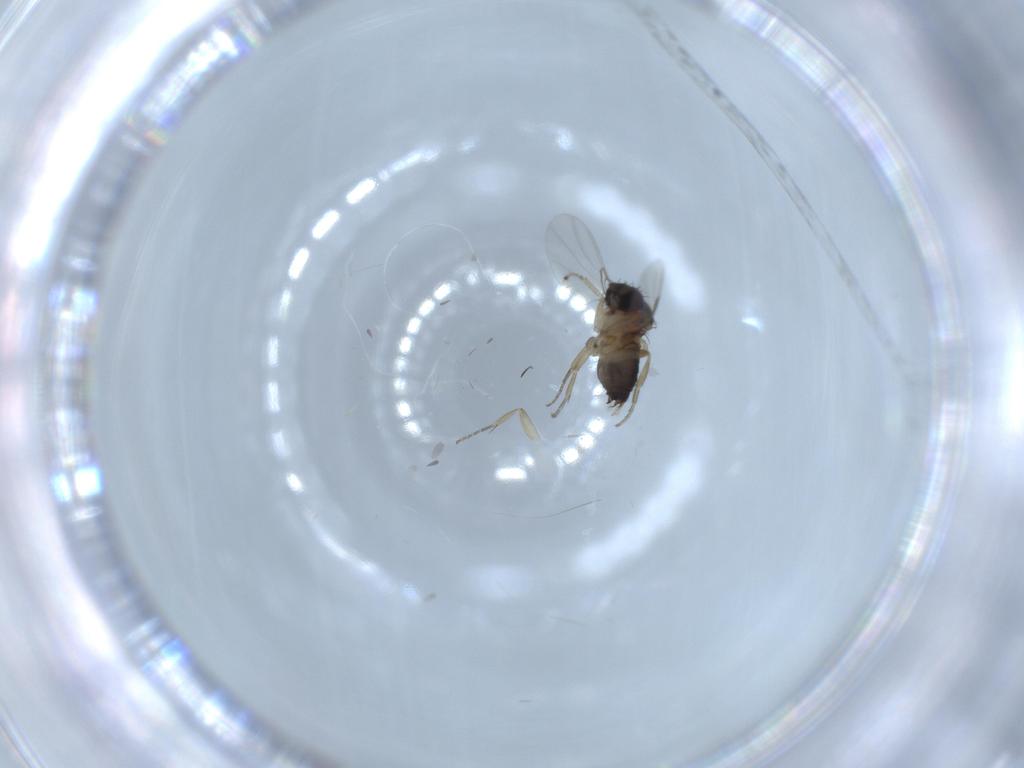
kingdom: Animalia
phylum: Arthropoda
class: Insecta
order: Diptera
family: Phoridae
